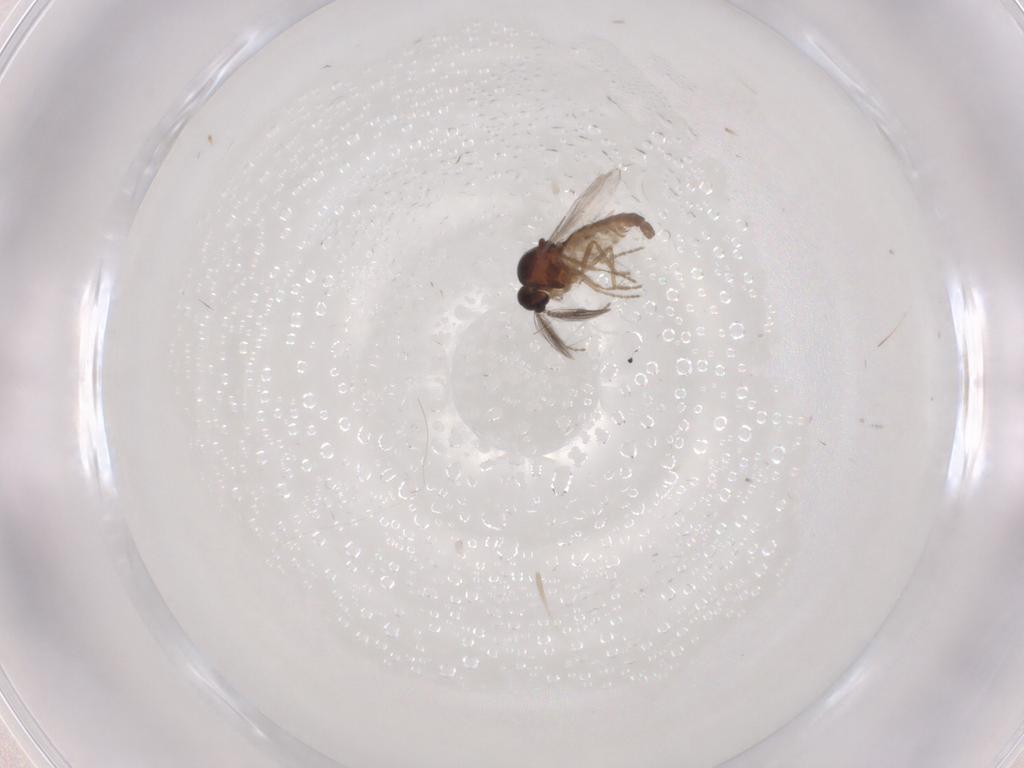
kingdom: Animalia
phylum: Arthropoda
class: Insecta
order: Diptera
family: Ceratopogonidae
